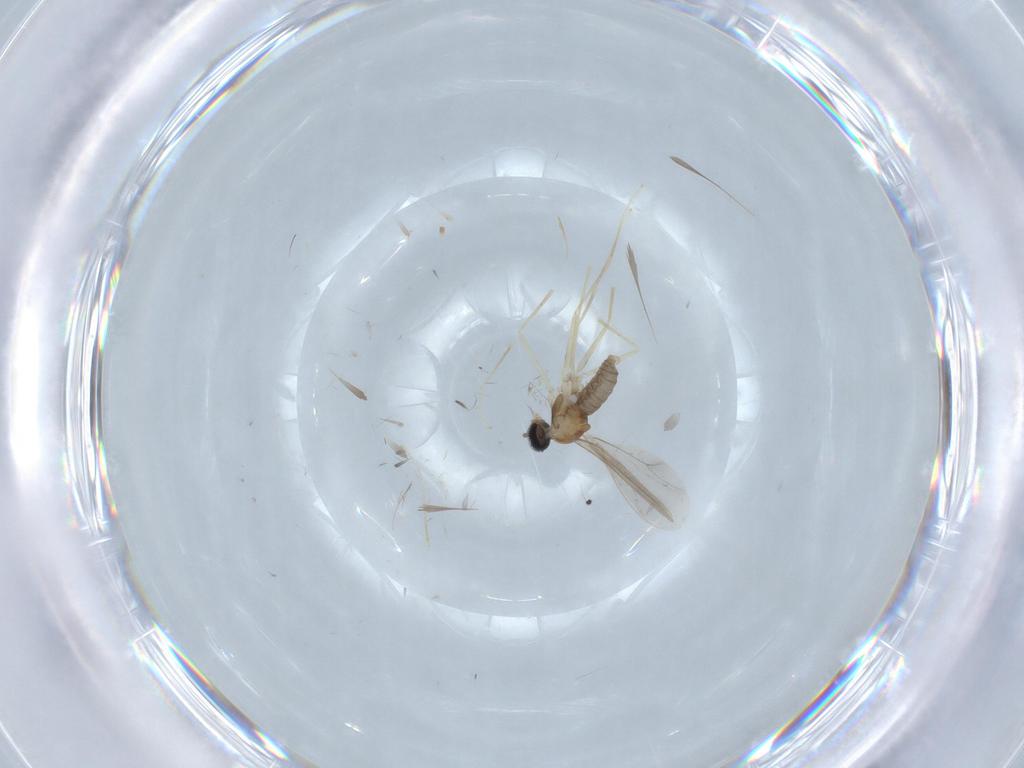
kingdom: Animalia
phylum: Arthropoda
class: Insecta
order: Diptera
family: Cecidomyiidae
